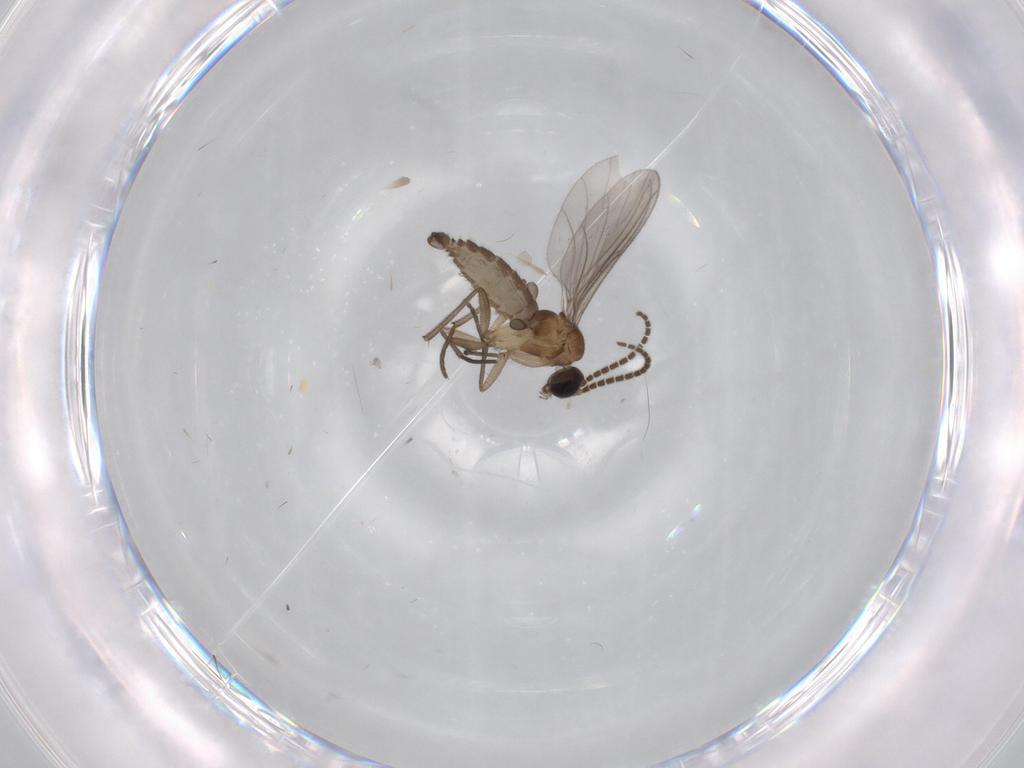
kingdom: Animalia
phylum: Arthropoda
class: Insecta
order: Diptera
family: Sciaridae
